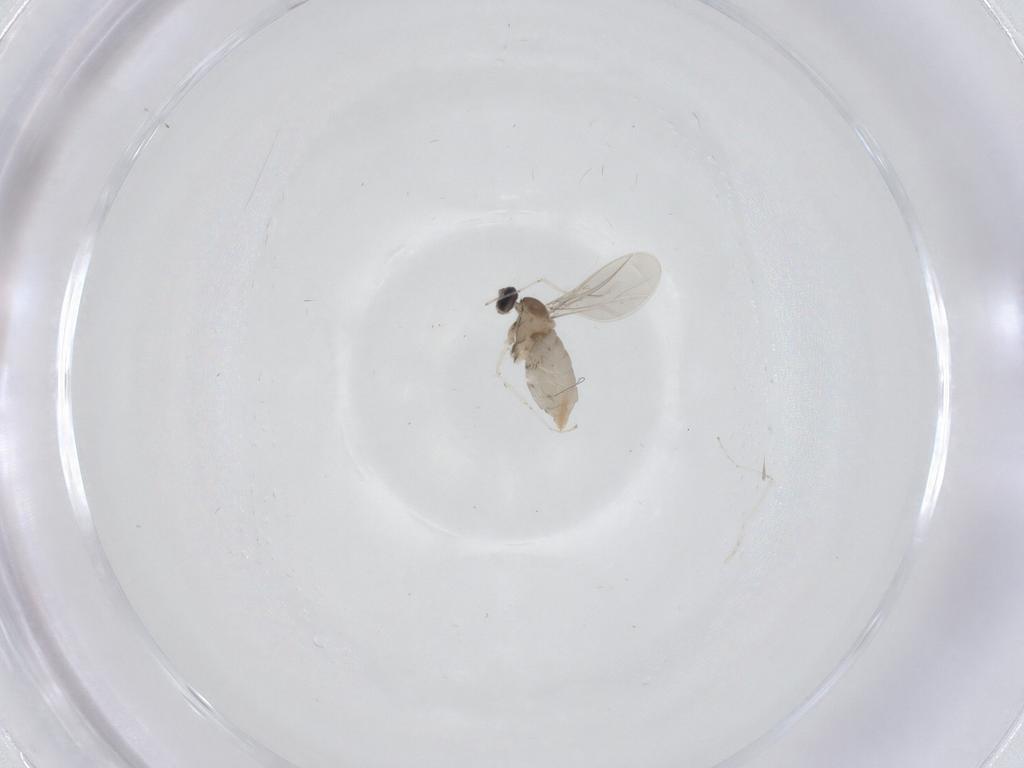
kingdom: Animalia
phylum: Arthropoda
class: Insecta
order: Diptera
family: Cecidomyiidae
